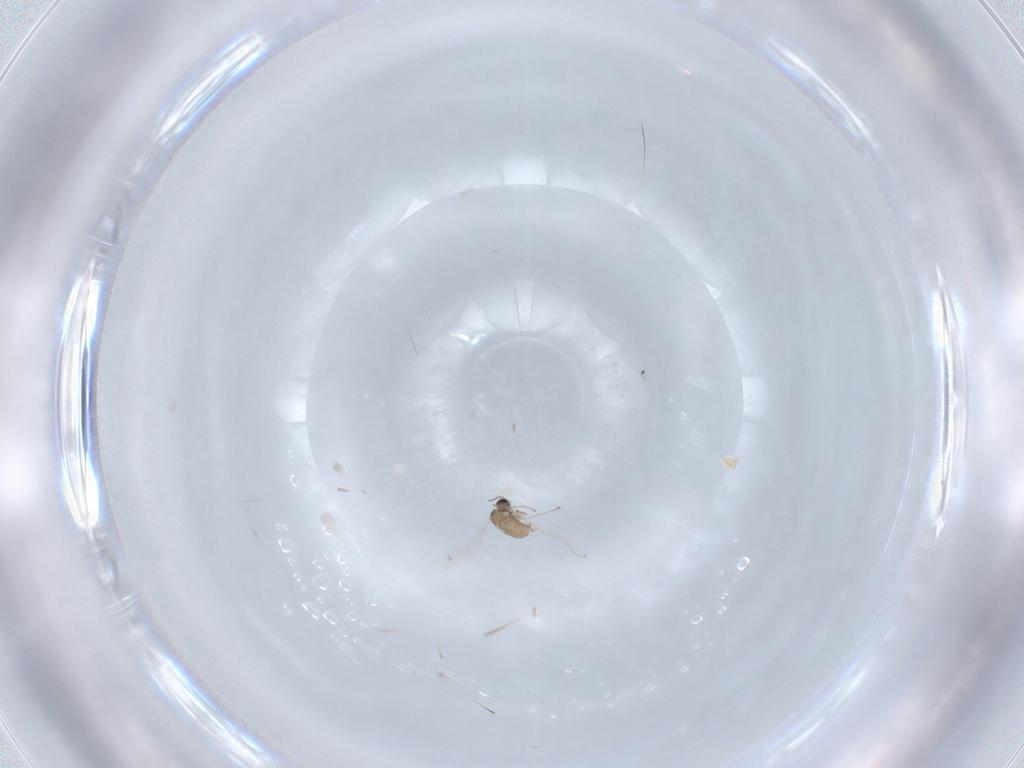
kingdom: Animalia
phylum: Arthropoda
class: Insecta
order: Diptera
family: Cecidomyiidae
